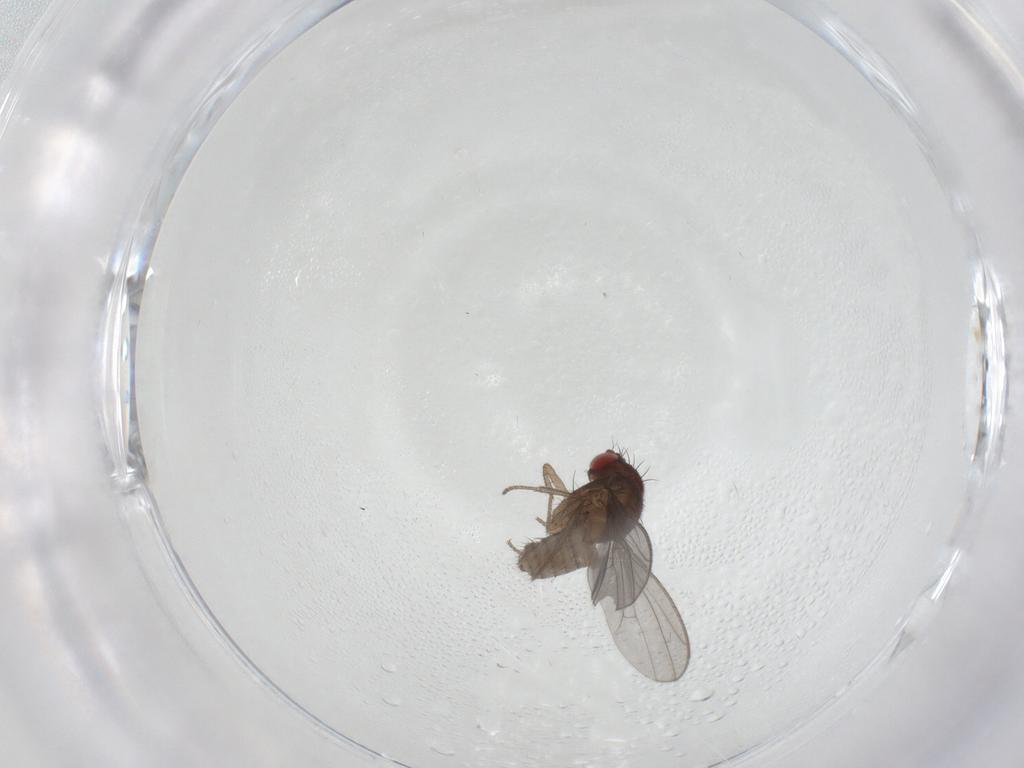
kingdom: Animalia
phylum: Arthropoda
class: Insecta
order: Diptera
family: Drosophilidae
